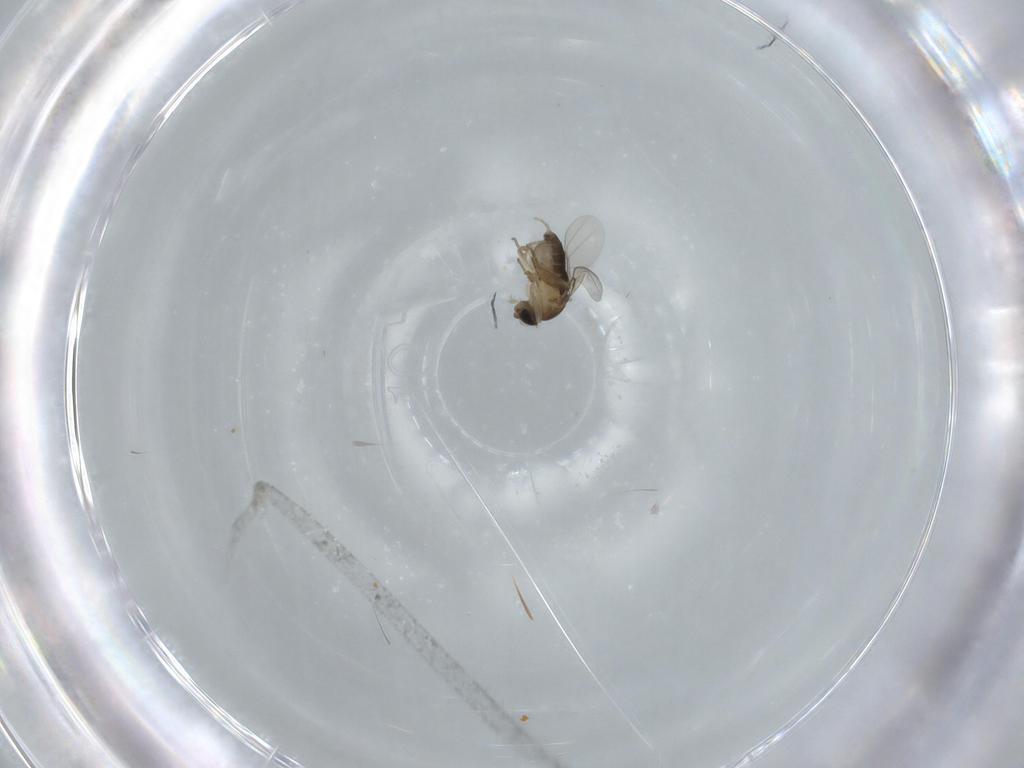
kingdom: Animalia
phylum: Arthropoda
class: Insecta
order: Diptera
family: Phoridae
